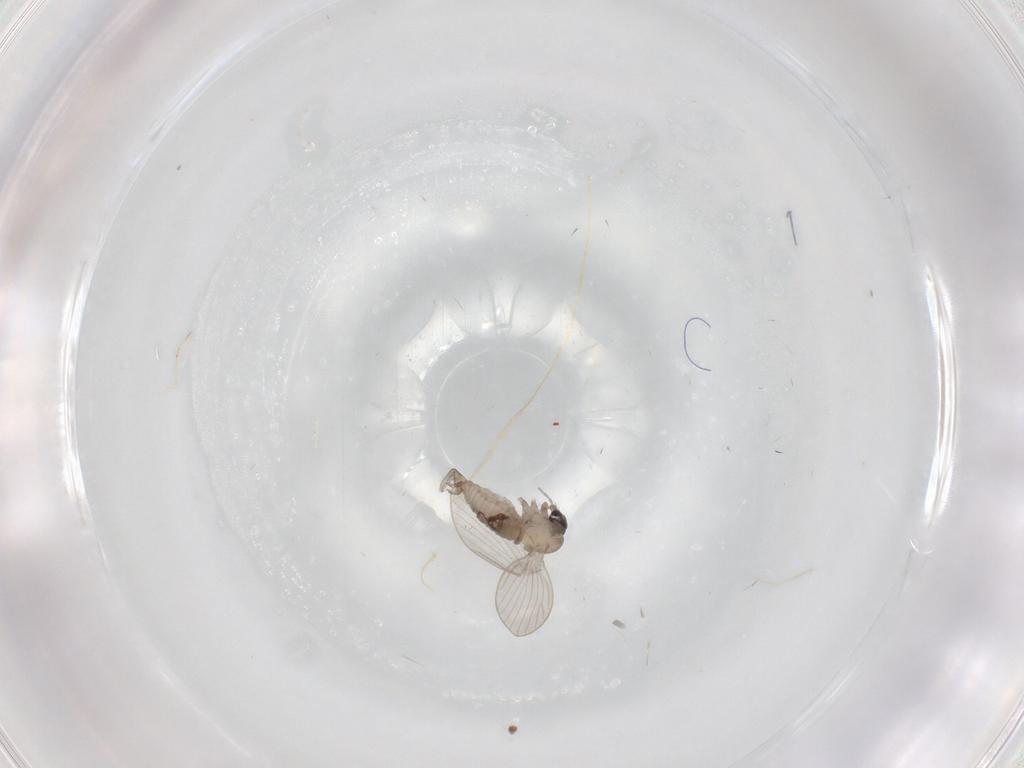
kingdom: Animalia
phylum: Arthropoda
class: Insecta
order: Diptera
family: Psychodidae
